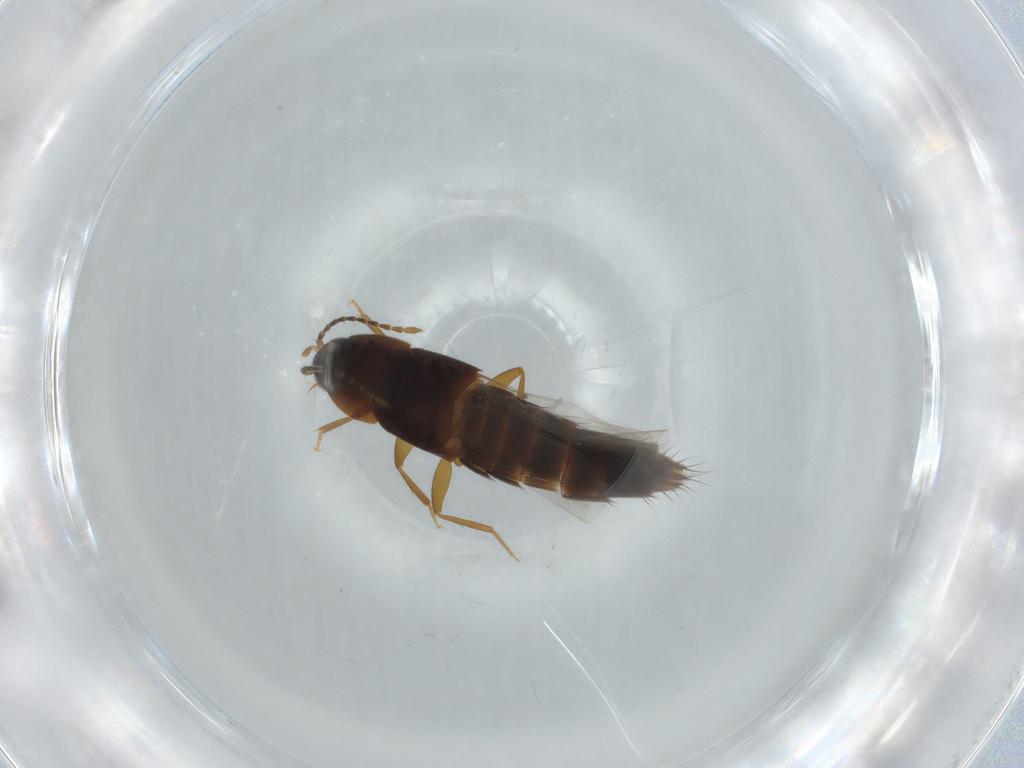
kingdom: Animalia
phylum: Arthropoda
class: Insecta
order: Coleoptera
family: Staphylinidae
